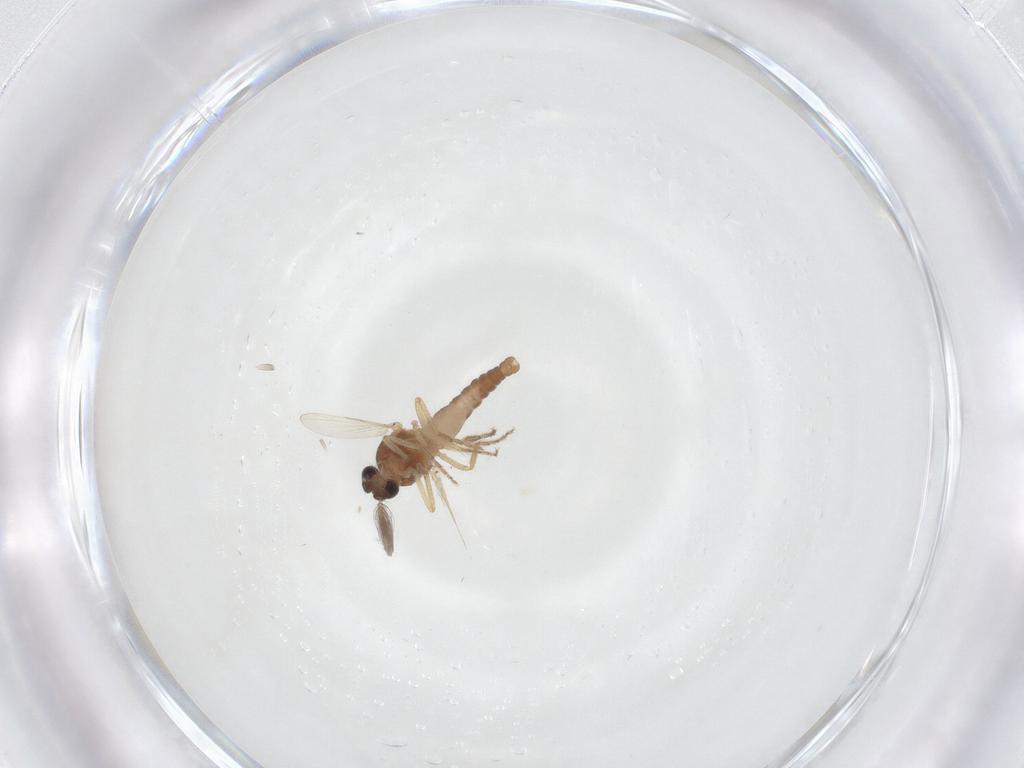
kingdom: Animalia
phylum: Arthropoda
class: Insecta
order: Diptera
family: Ceratopogonidae
